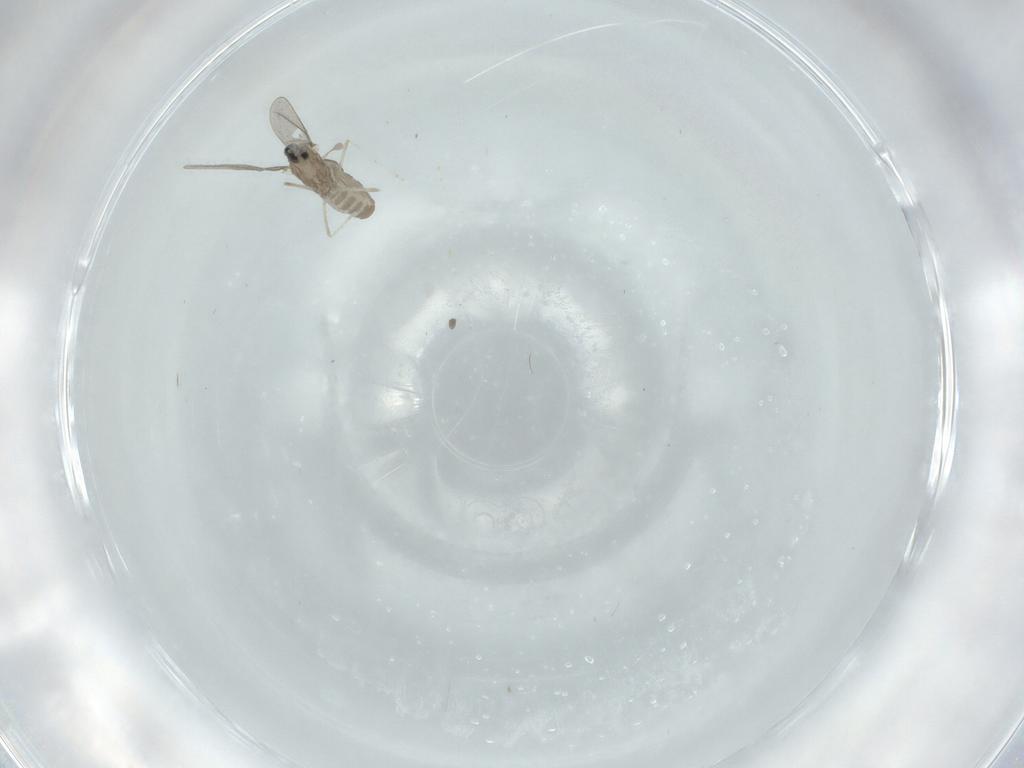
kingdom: Animalia
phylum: Arthropoda
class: Insecta
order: Diptera
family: Cecidomyiidae
